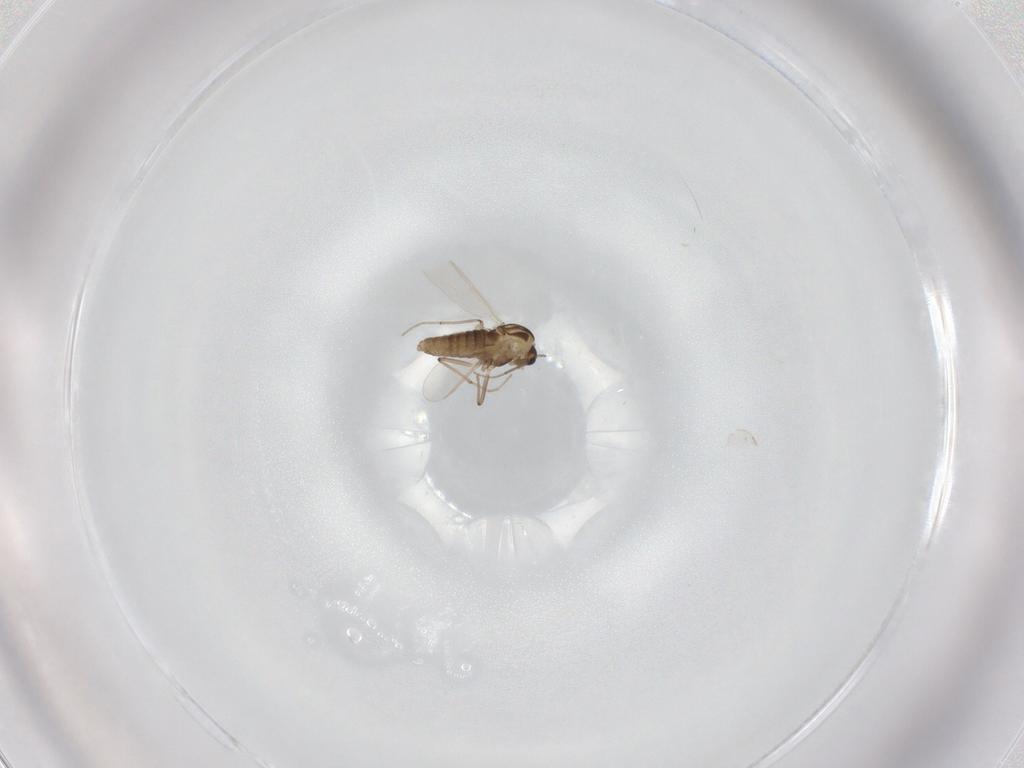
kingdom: Animalia
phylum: Arthropoda
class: Insecta
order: Diptera
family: Chironomidae
